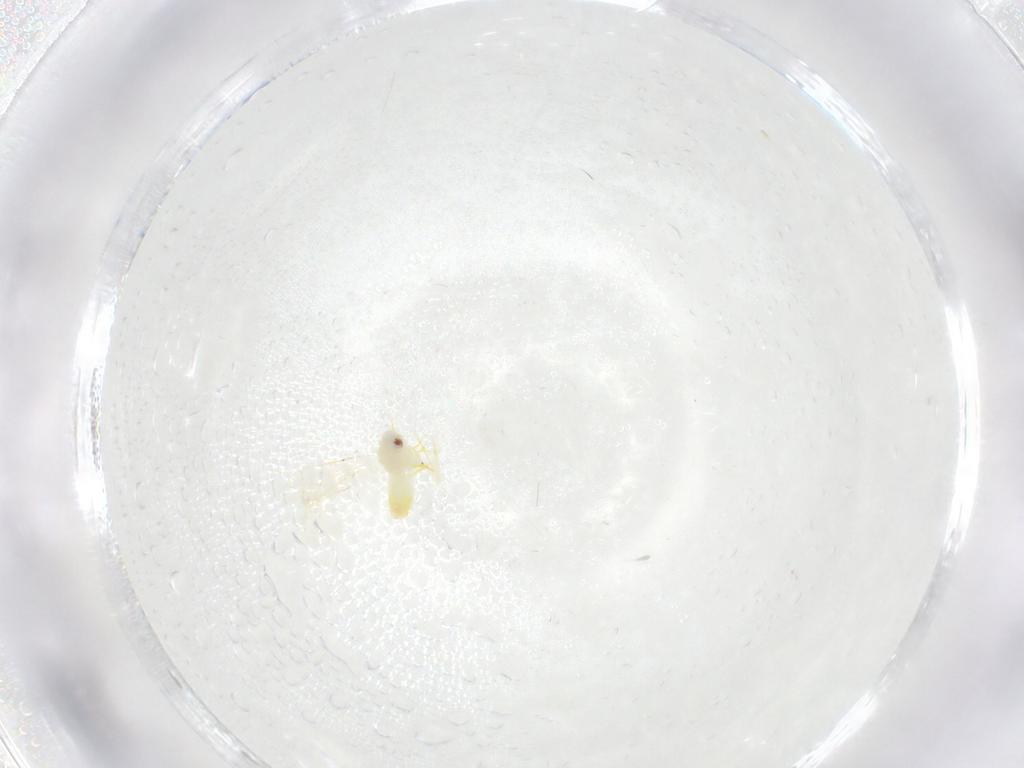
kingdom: Animalia
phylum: Arthropoda
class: Insecta
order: Hemiptera
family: Aleyrodidae
